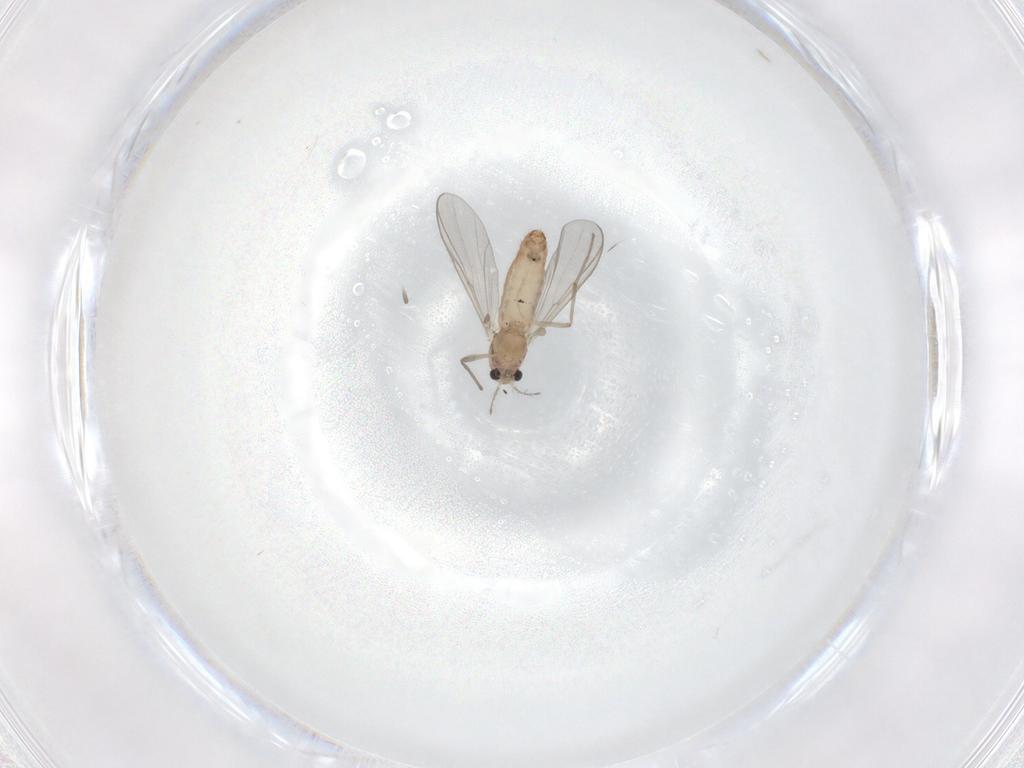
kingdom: Animalia
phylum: Arthropoda
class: Insecta
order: Diptera
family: Chironomidae
